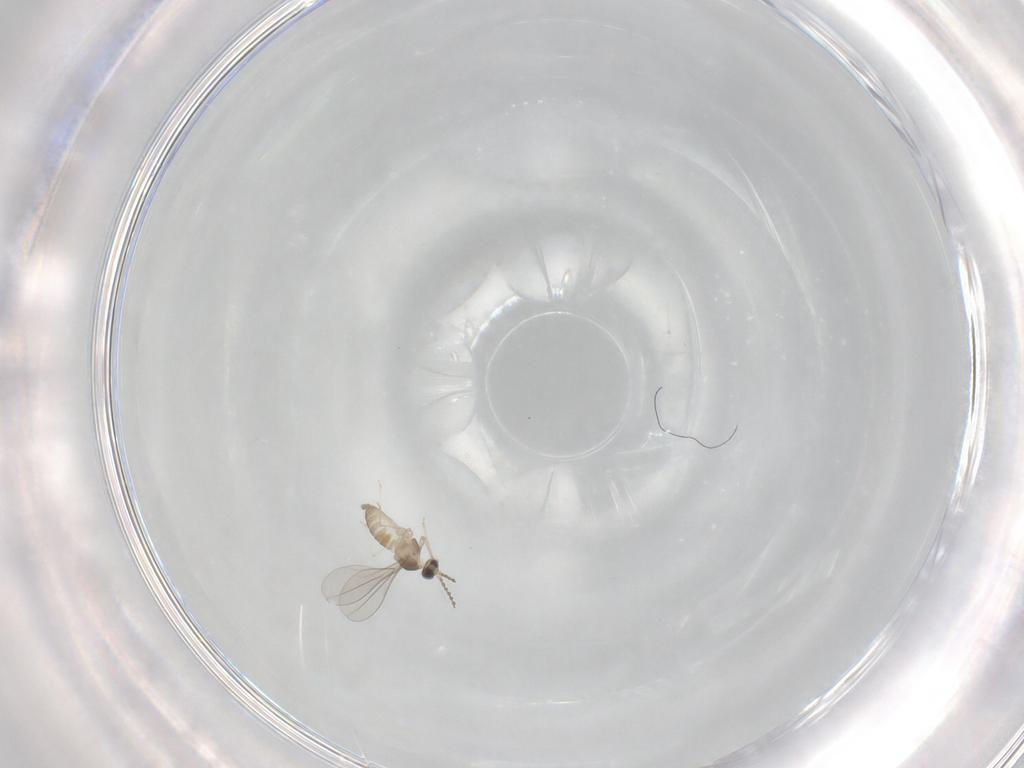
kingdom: Animalia
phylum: Arthropoda
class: Insecta
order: Diptera
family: Cecidomyiidae
